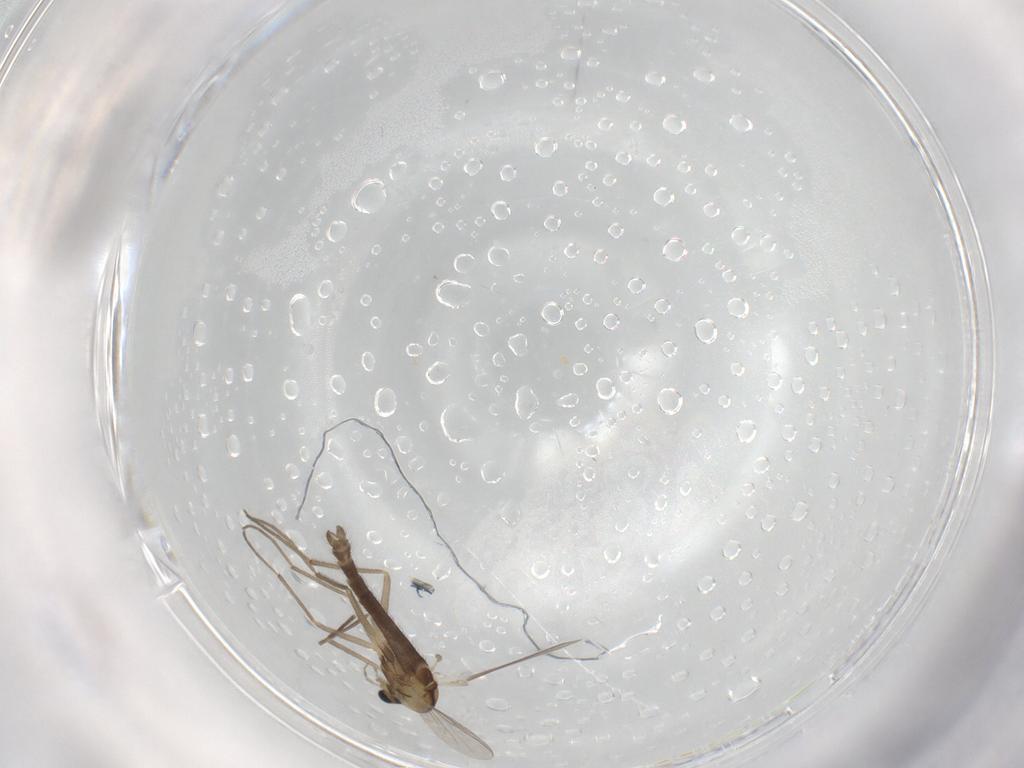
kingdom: Animalia
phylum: Arthropoda
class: Insecta
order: Diptera
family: Chironomidae
